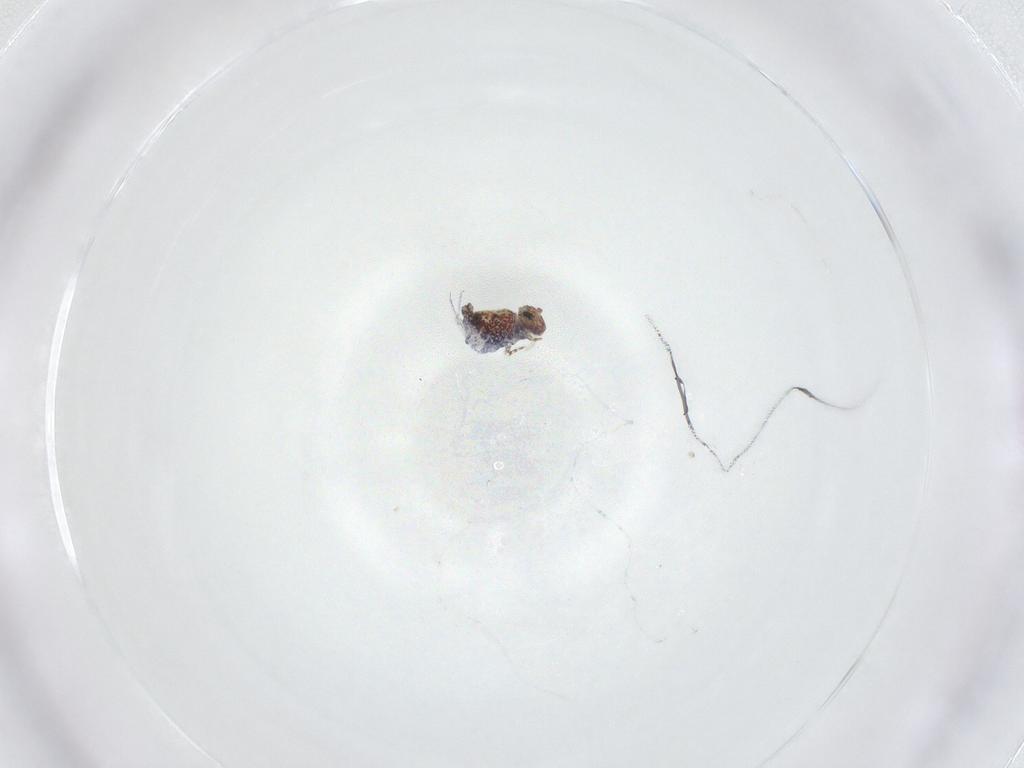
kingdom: Animalia
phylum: Arthropoda
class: Collembola
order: Symphypleona
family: Bourletiellidae
